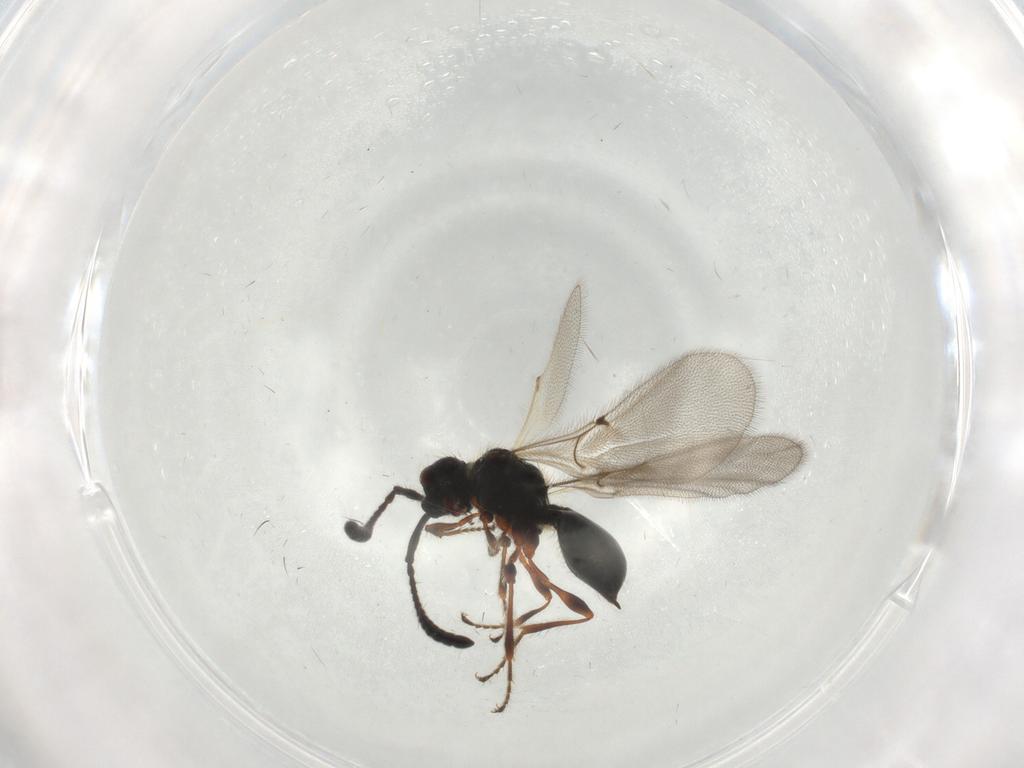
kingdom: Animalia
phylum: Arthropoda
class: Insecta
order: Hymenoptera
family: Diapriidae
